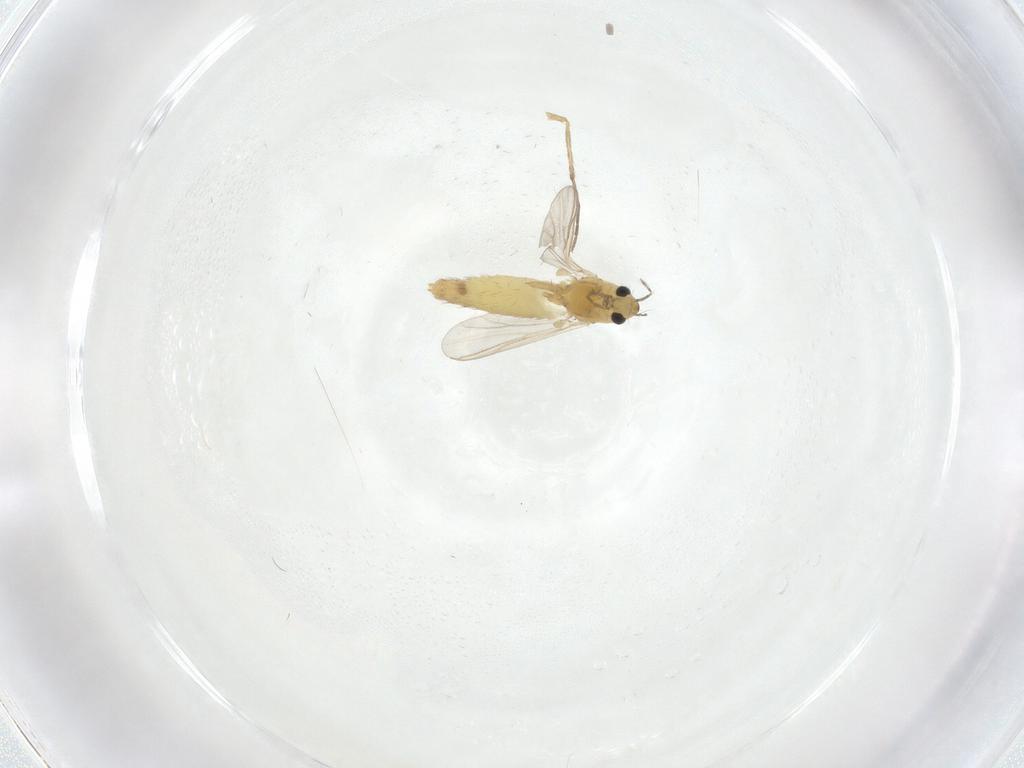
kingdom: Animalia
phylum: Arthropoda
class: Insecta
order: Diptera
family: Chironomidae
